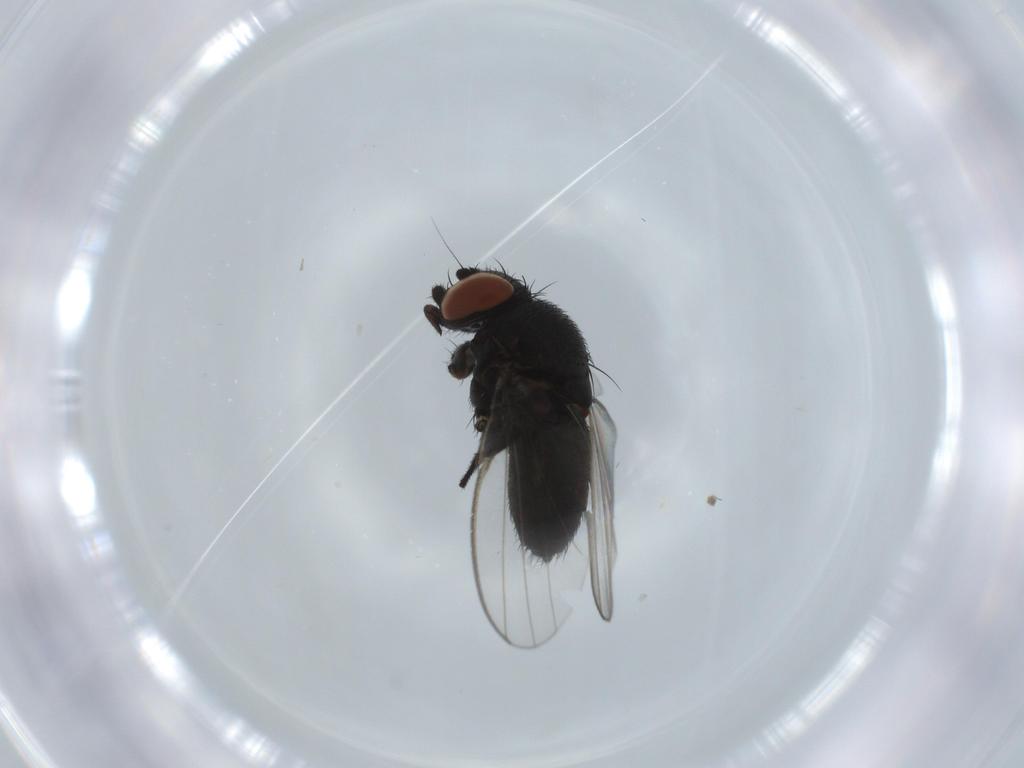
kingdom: Animalia
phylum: Arthropoda
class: Insecta
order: Diptera
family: Milichiidae
